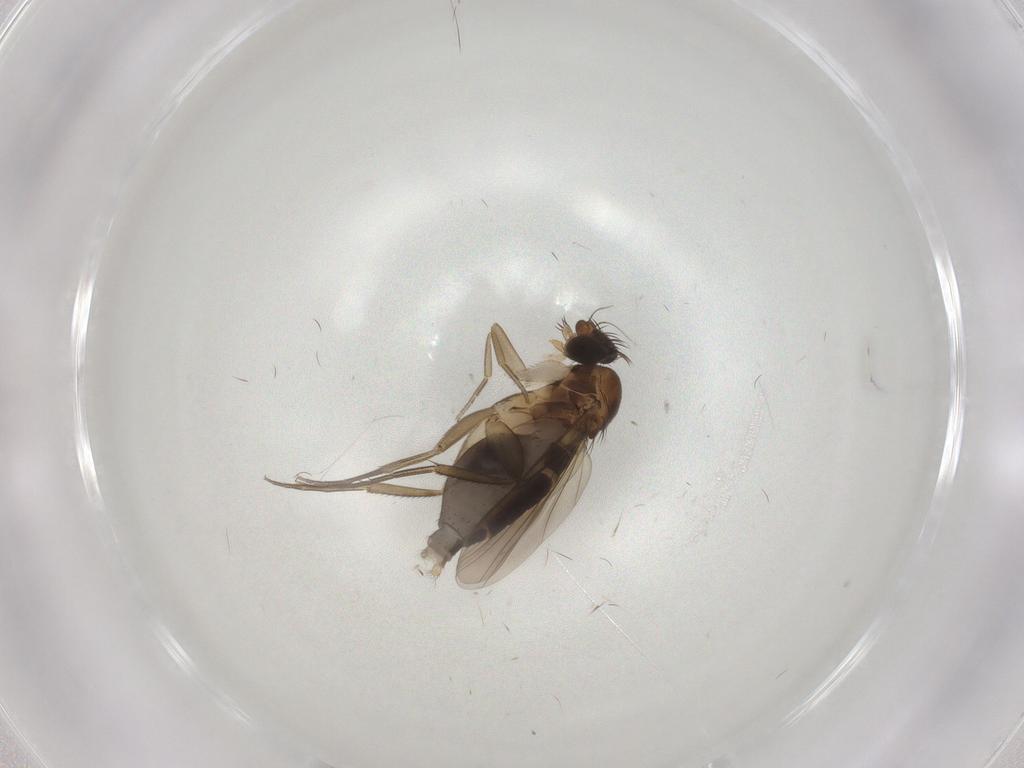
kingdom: Animalia
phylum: Arthropoda
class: Insecta
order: Diptera
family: Phoridae
